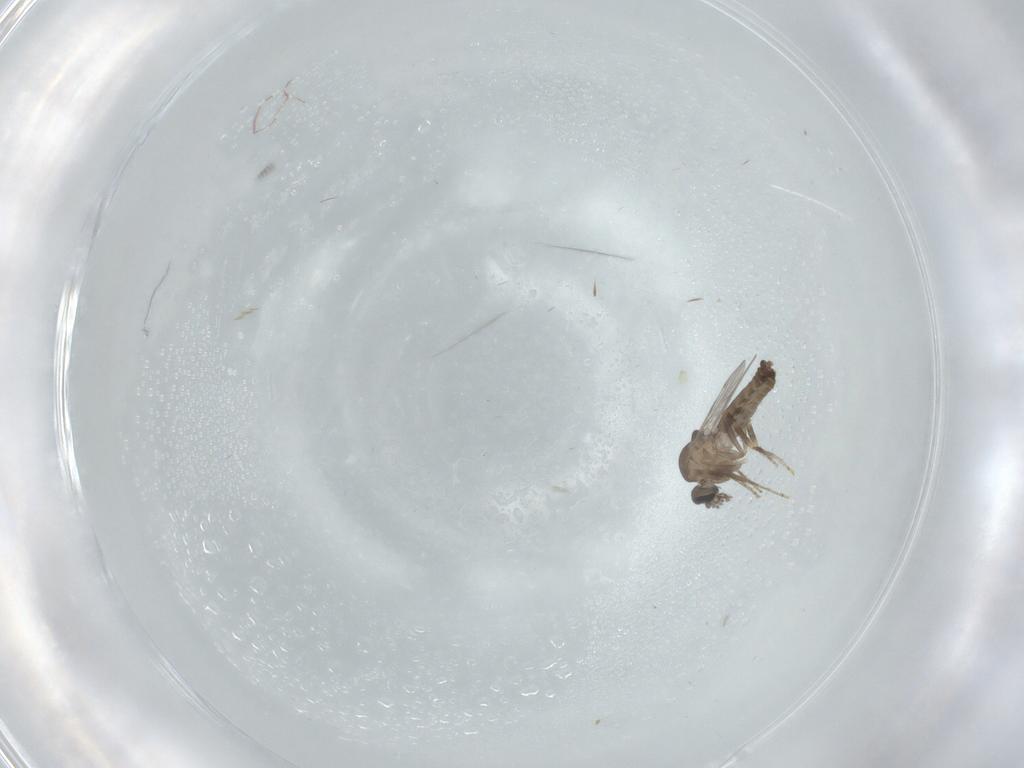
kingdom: Animalia
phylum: Arthropoda
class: Insecta
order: Diptera
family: Ceratopogonidae
